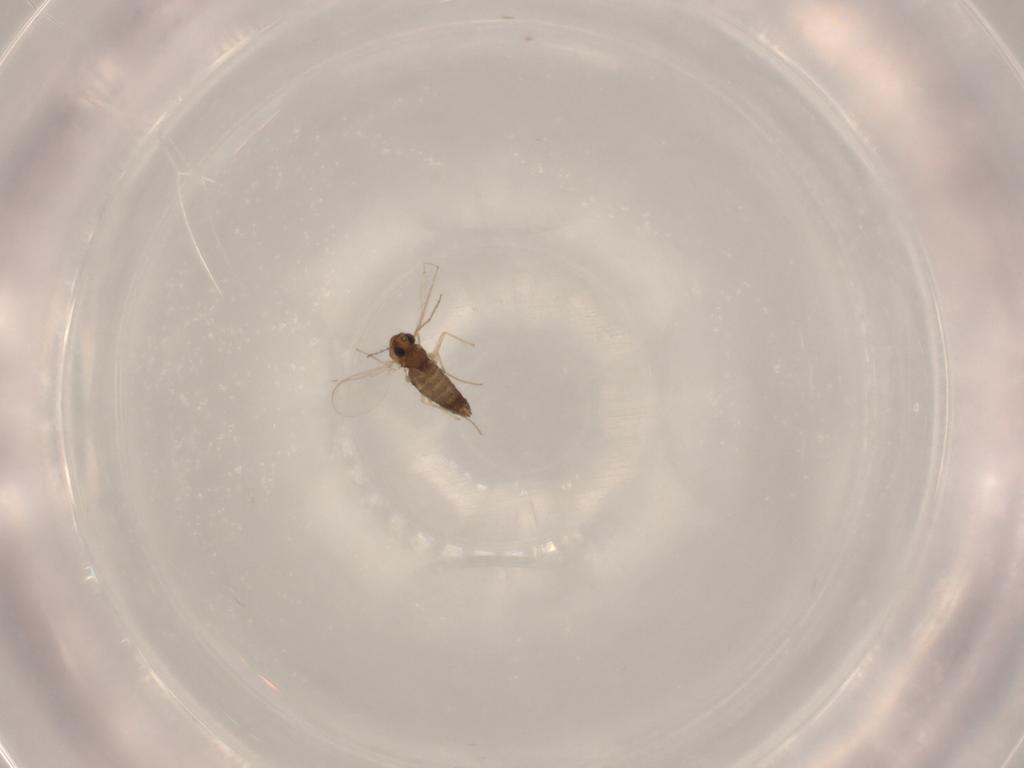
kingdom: Animalia
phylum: Arthropoda
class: Insecta
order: Diptera
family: Chironomidae
